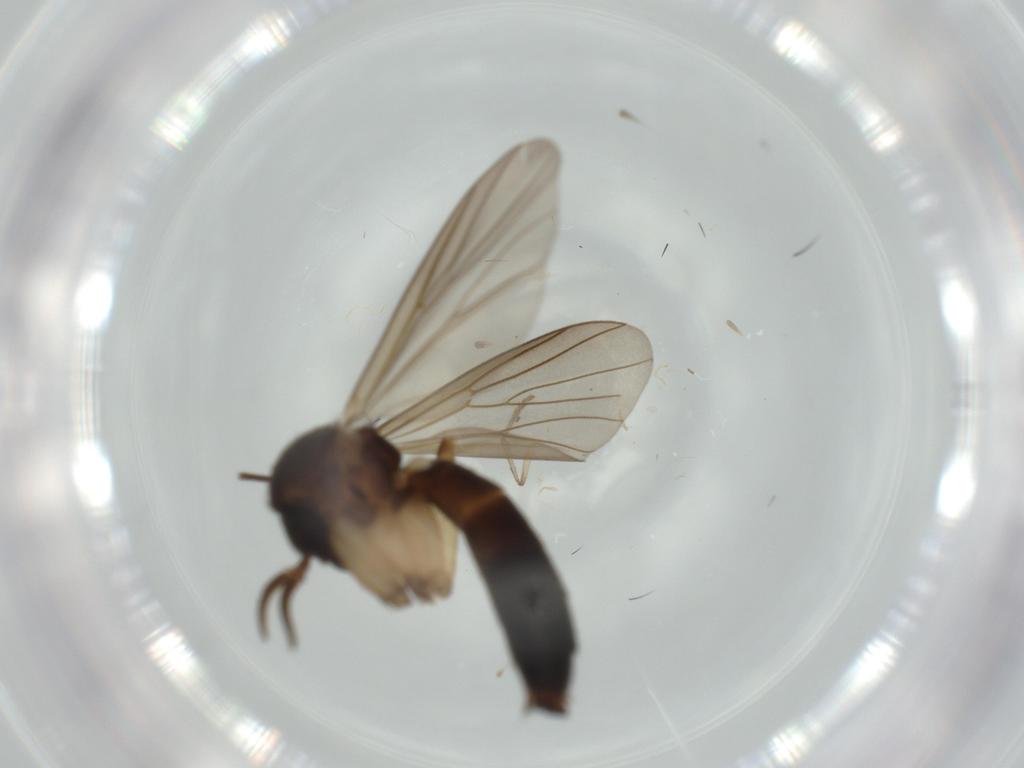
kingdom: Animalia
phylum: Arthropoda
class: Insecta
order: Diptera
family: Mycetophilidae
